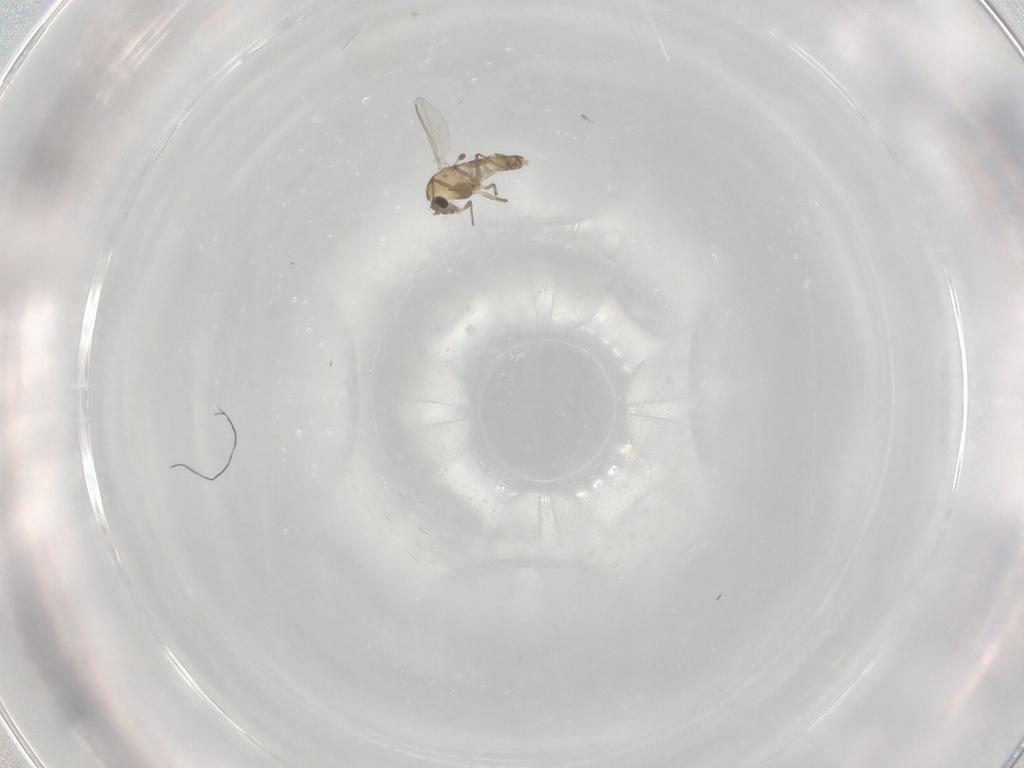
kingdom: Animalia
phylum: Arthropoda
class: Insecta
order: Diptera
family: Chironomidae
